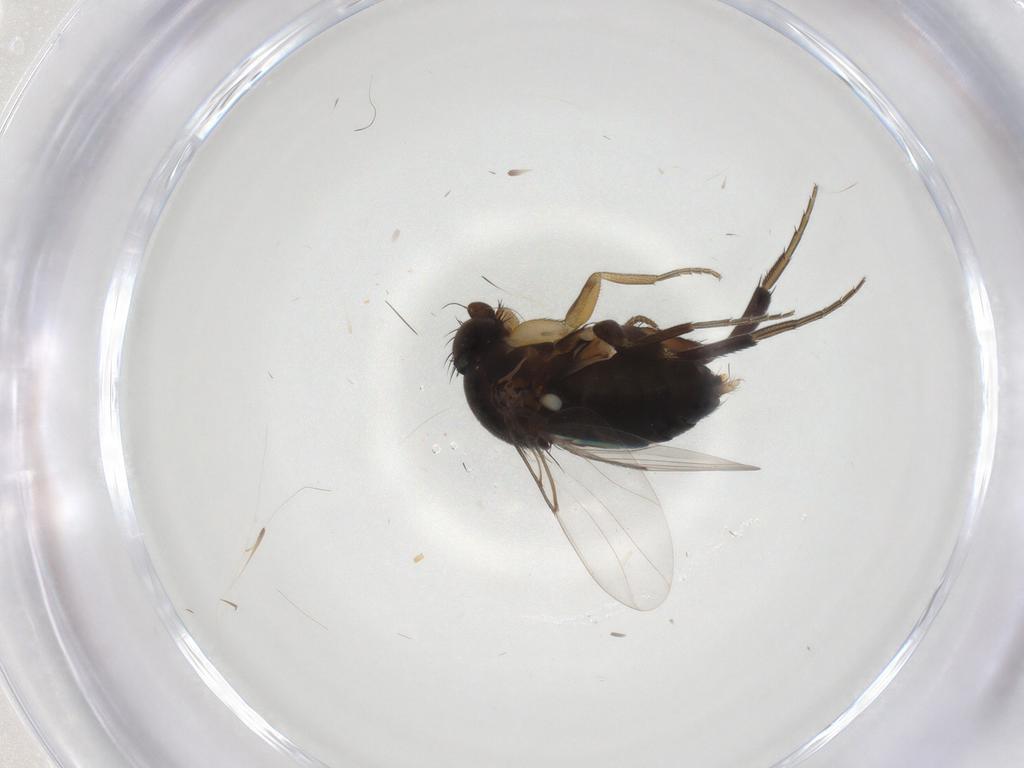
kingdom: Animalia
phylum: Arthropoda
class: Insecta
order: Diptera
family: Phoridae
